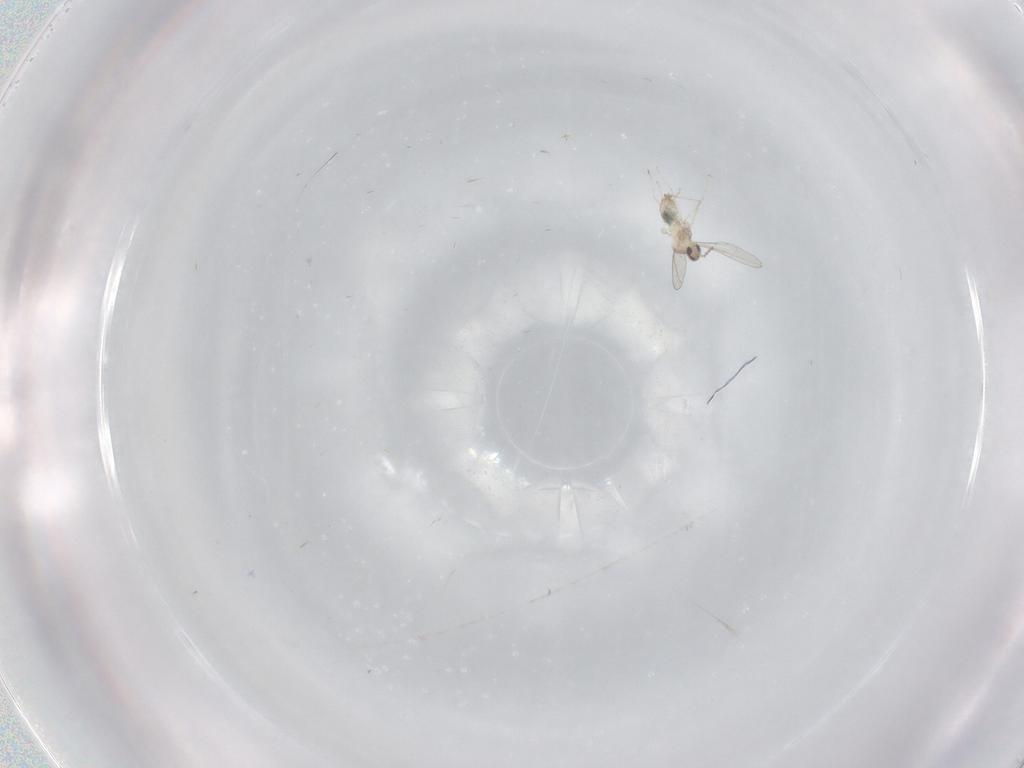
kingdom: Animalia
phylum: Arthropoda
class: Insecta
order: Diptera
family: Cecidomyiidae
